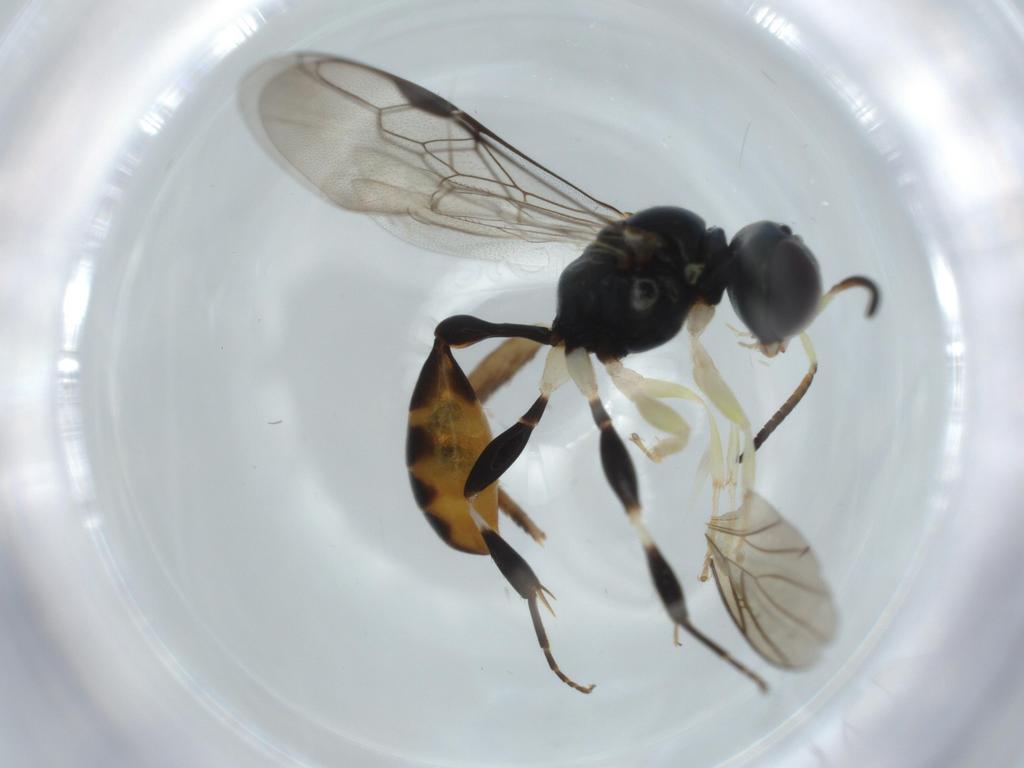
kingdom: Animalia
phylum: Arthropoda
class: Insecta
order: Hymenoptera
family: Crabronidae
